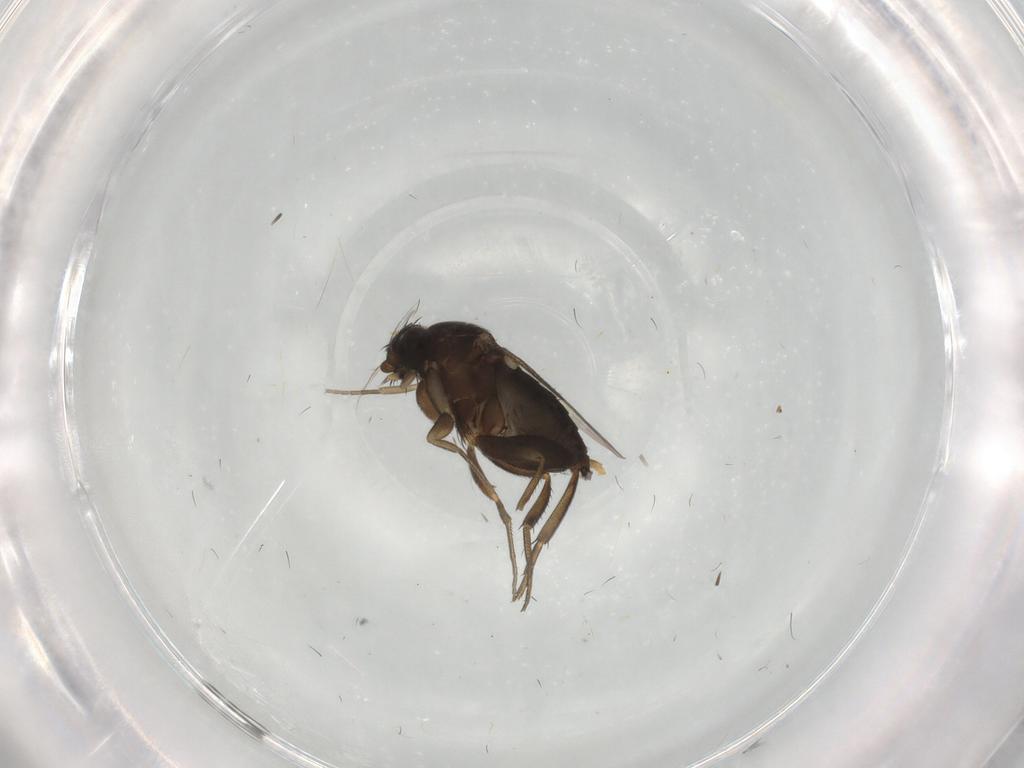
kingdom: Animalia
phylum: Arthropoda
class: Insecta
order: Diptera
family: Phoridae
